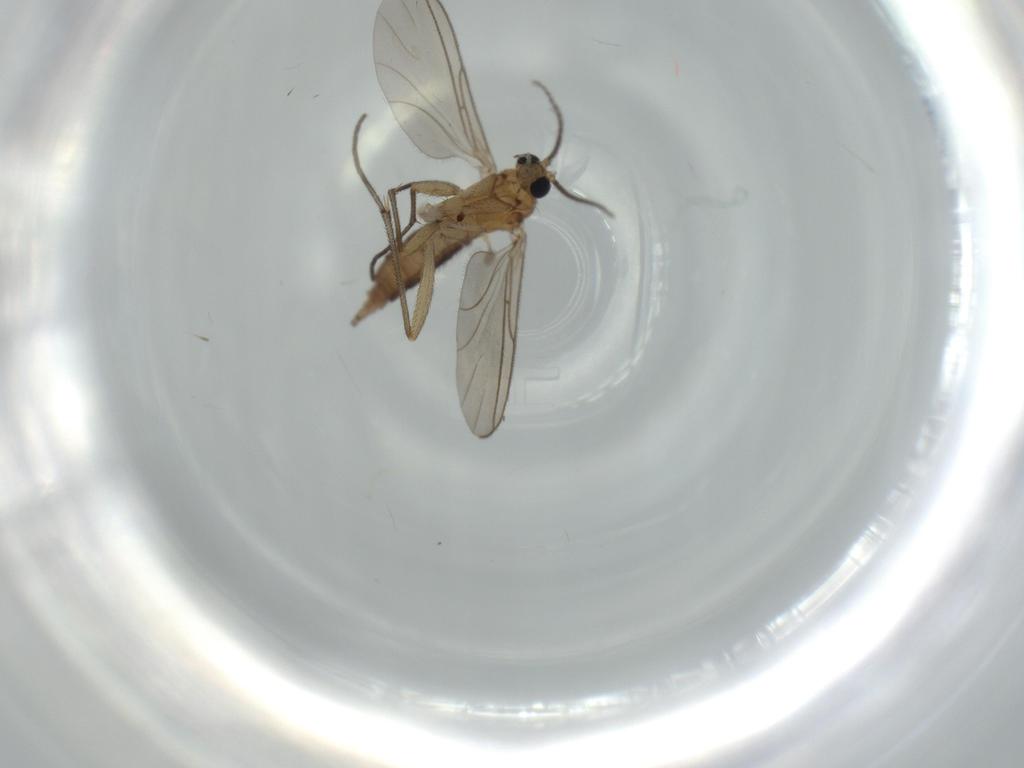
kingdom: Animalia
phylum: Arthropoda
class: Insecta
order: Diptera
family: Sciaridae
